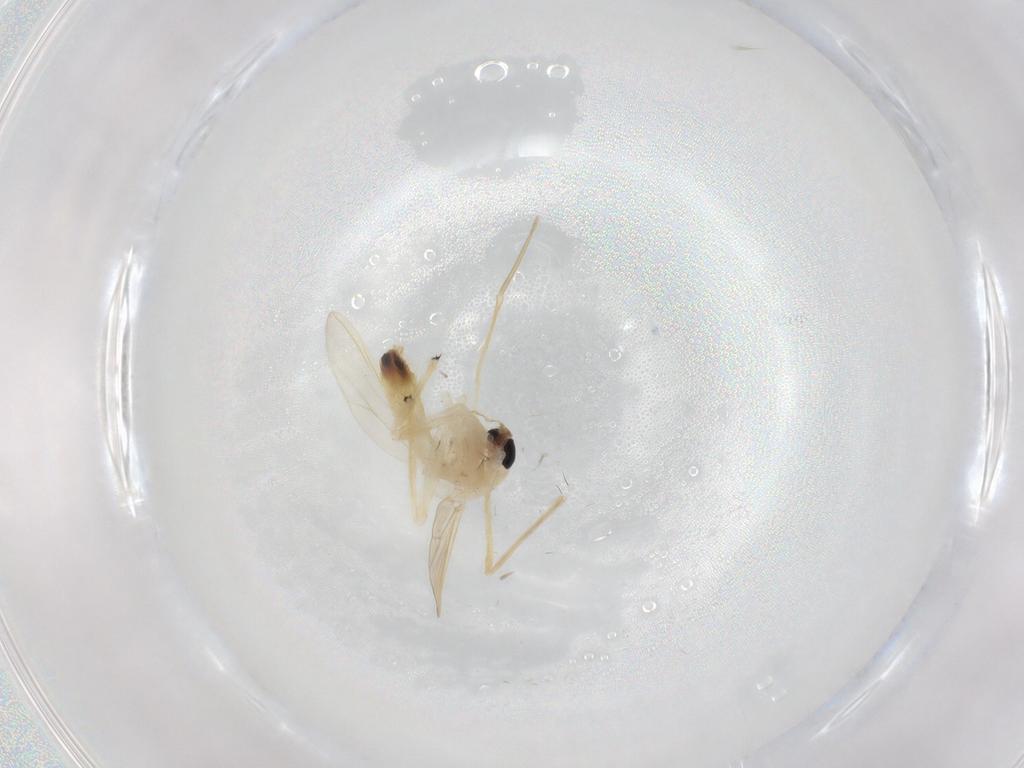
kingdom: Animalia
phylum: Arthropoda
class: Insecta
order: Diptera
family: Chironomidae
